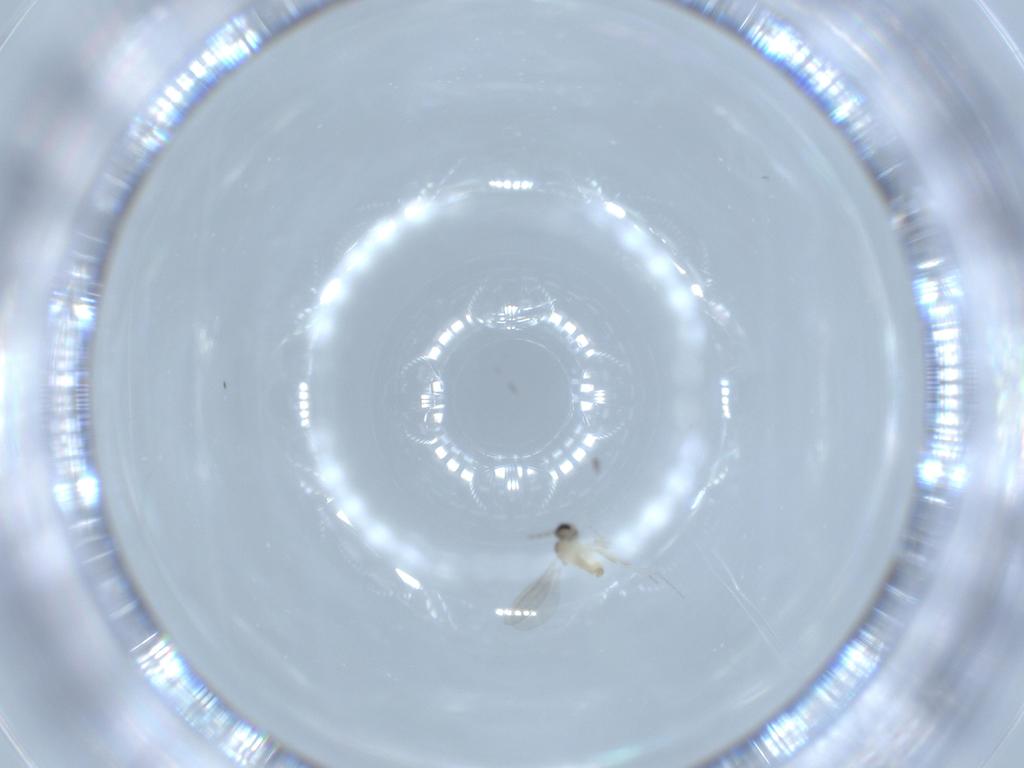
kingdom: Animalia
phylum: Arthropoda
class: Insecta
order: Diptera
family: Cecidomyiidae
